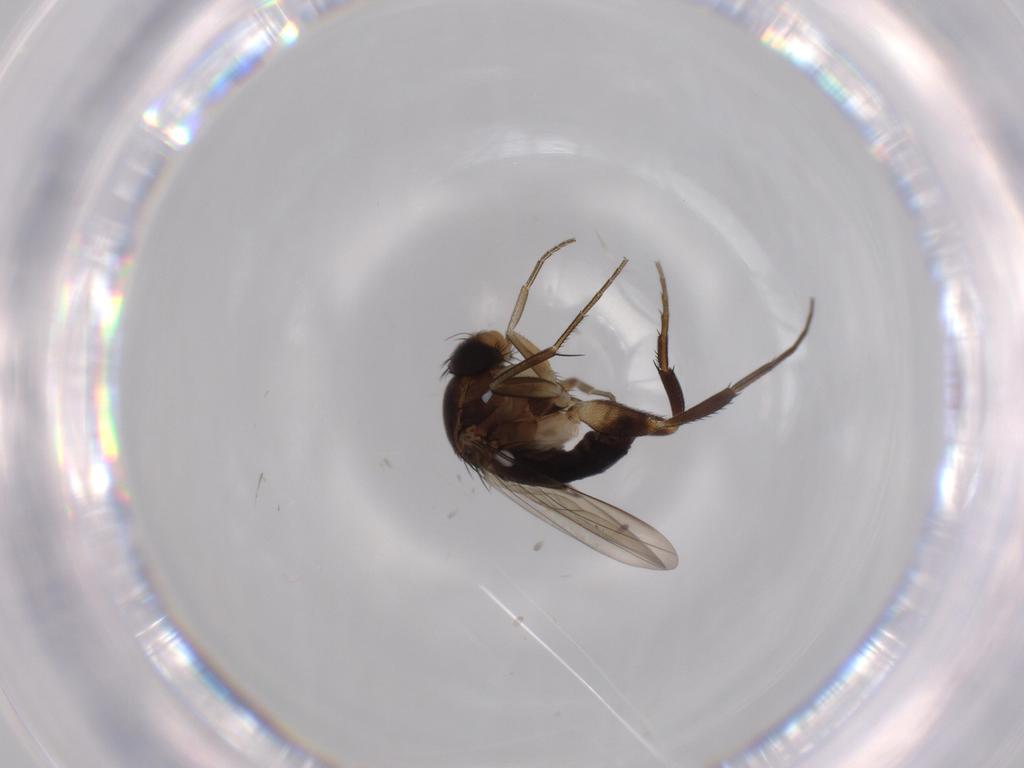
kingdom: Animalia
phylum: Arthropoda
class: Insecta
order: Diptera
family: Phoridae
